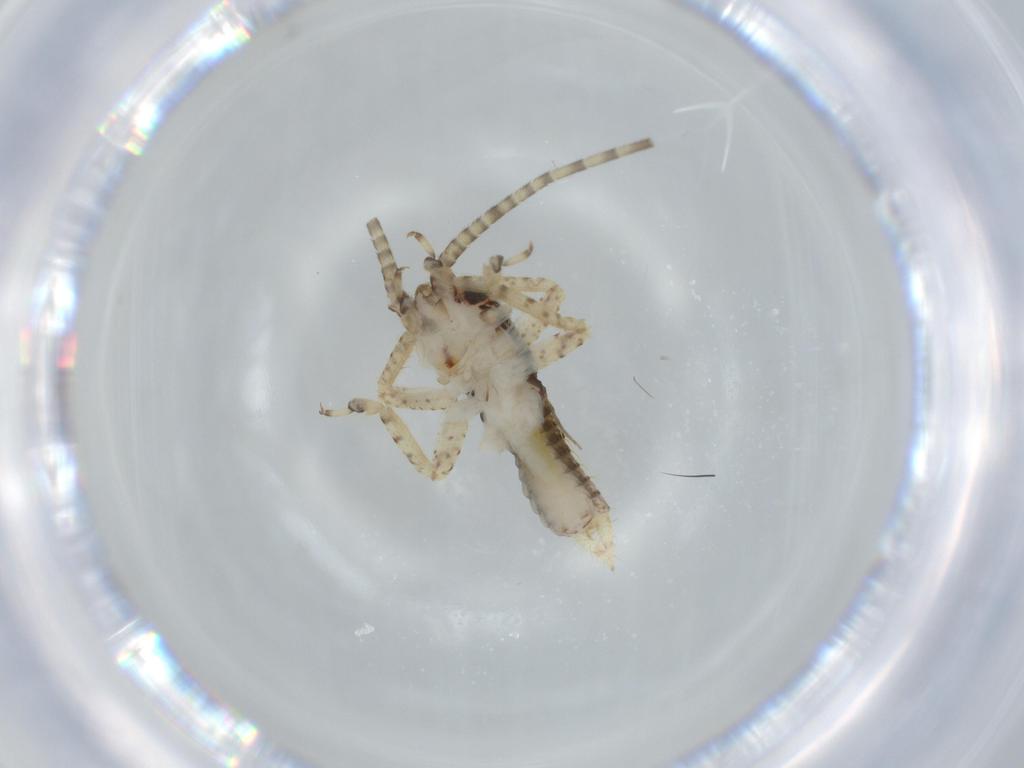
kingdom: Animalia
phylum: Arthropoda
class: Insecta
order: Orthoptera
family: Gryllidae
